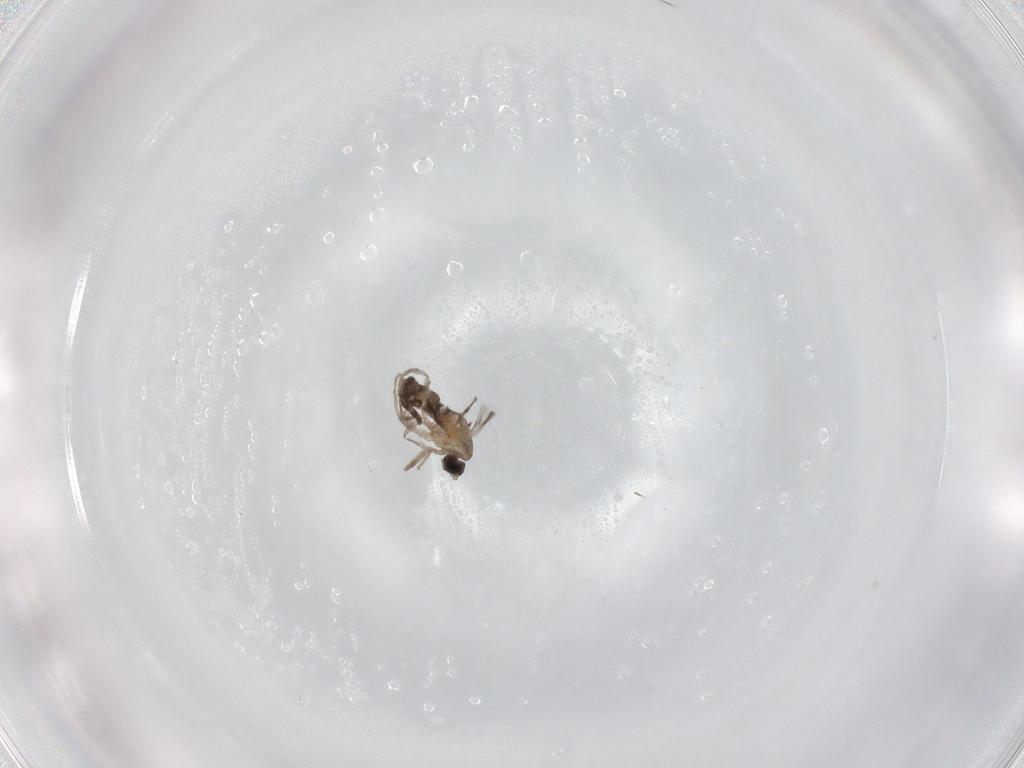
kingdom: Animalia
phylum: Arthropoda
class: Insecta
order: Diptera
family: Cecidomyiidae
